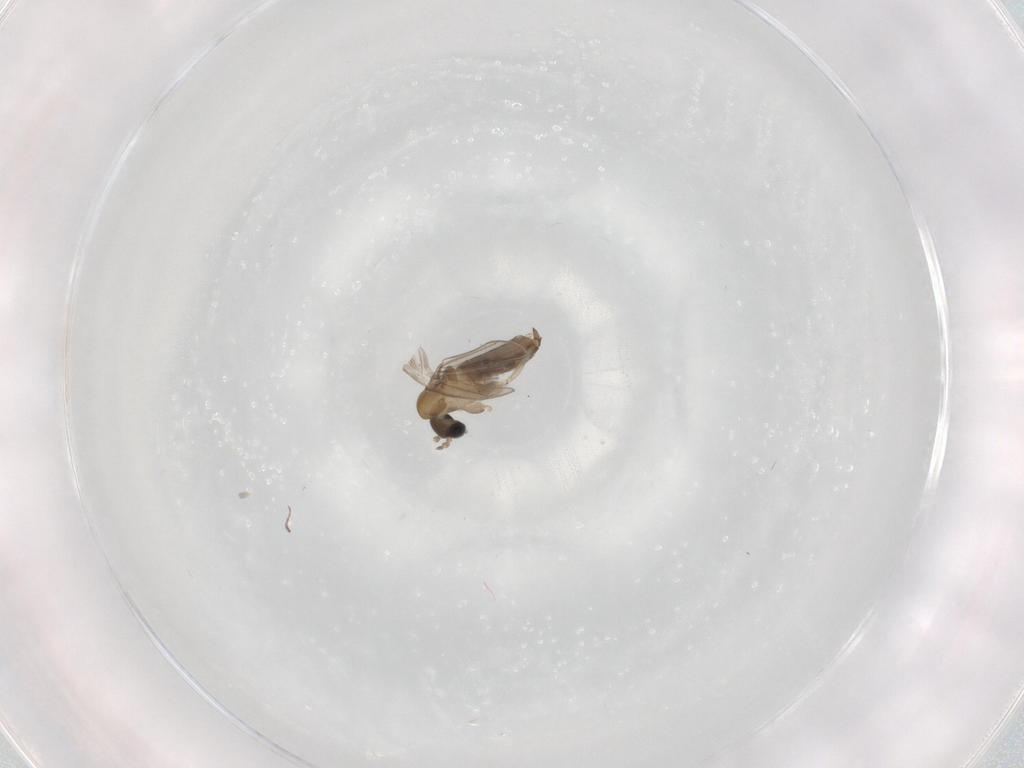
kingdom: Animalia
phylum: Arthropoda
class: Insecta
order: Diptera
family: Psychodidae
